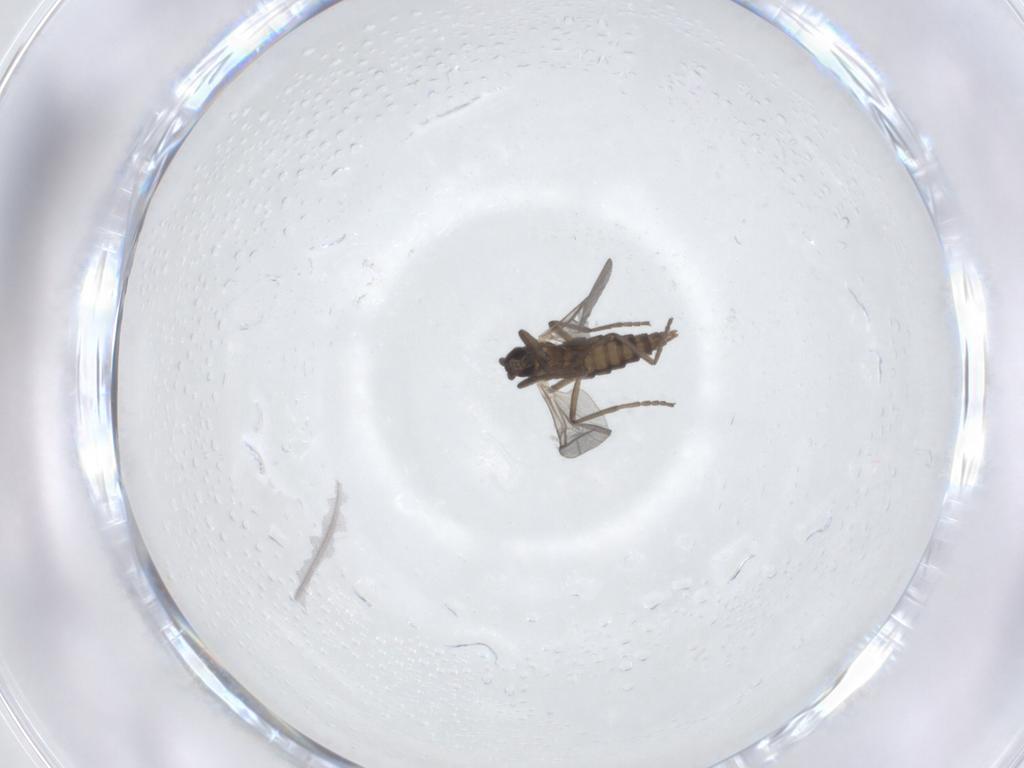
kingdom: Animalia
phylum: Arthropoda
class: Insecta
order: Diptera
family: Cecidomyiidae
